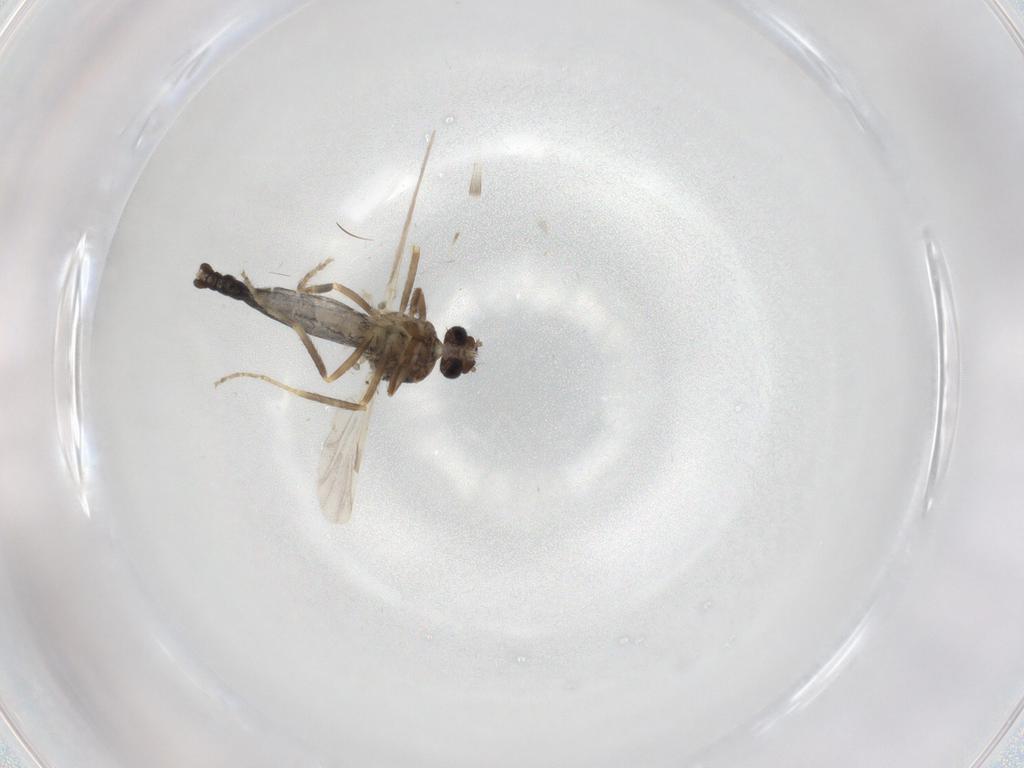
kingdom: Animalia
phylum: Arthropoda
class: Insecta
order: Diptera
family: Ceratopogonidae
